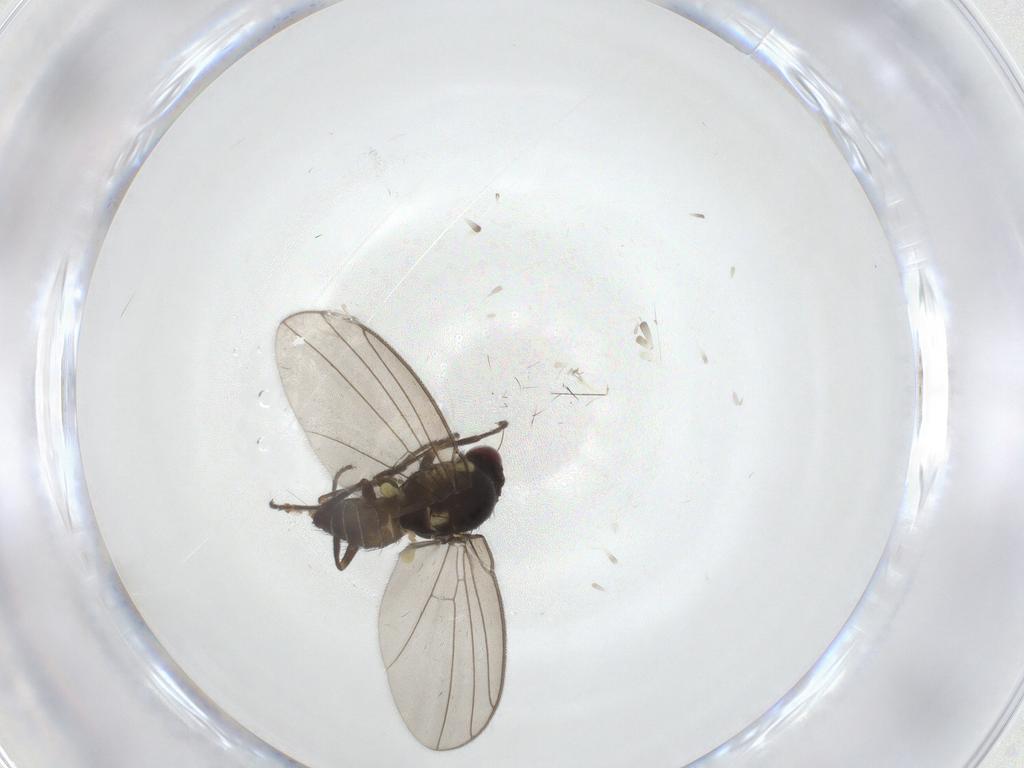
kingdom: Animalia
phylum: Arthropoda
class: Insecta
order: Diptera
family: Agromyzidae
